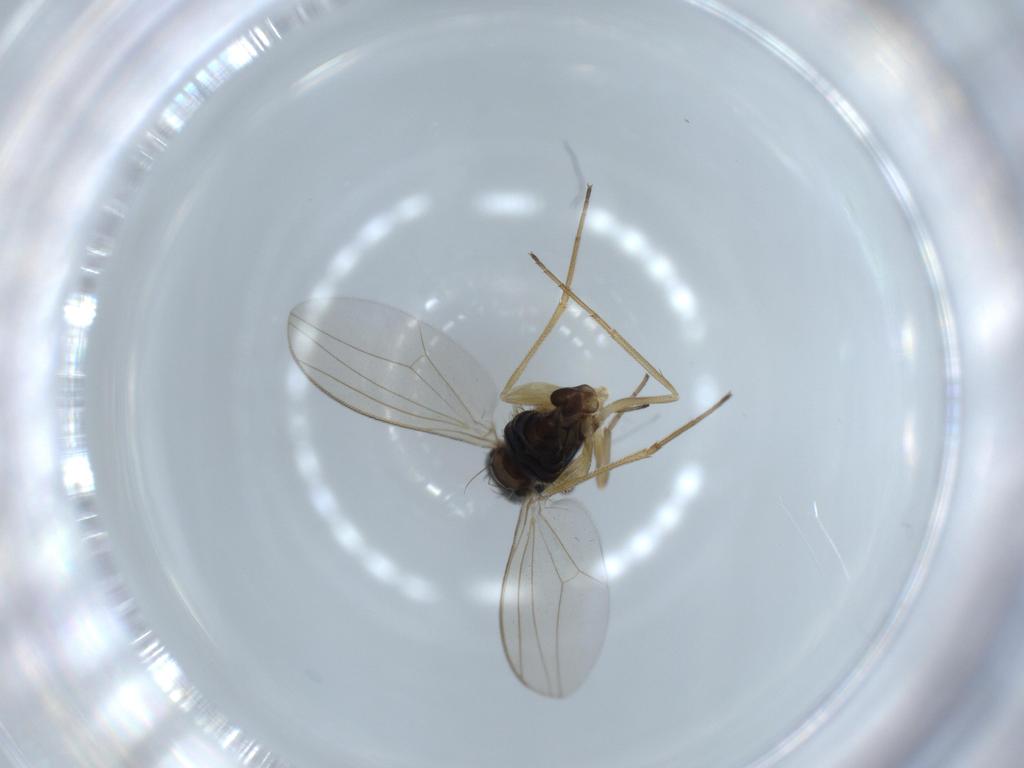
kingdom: Animalia
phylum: Arthropoda
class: Insecta
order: Diptera
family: Dolichopodidae
